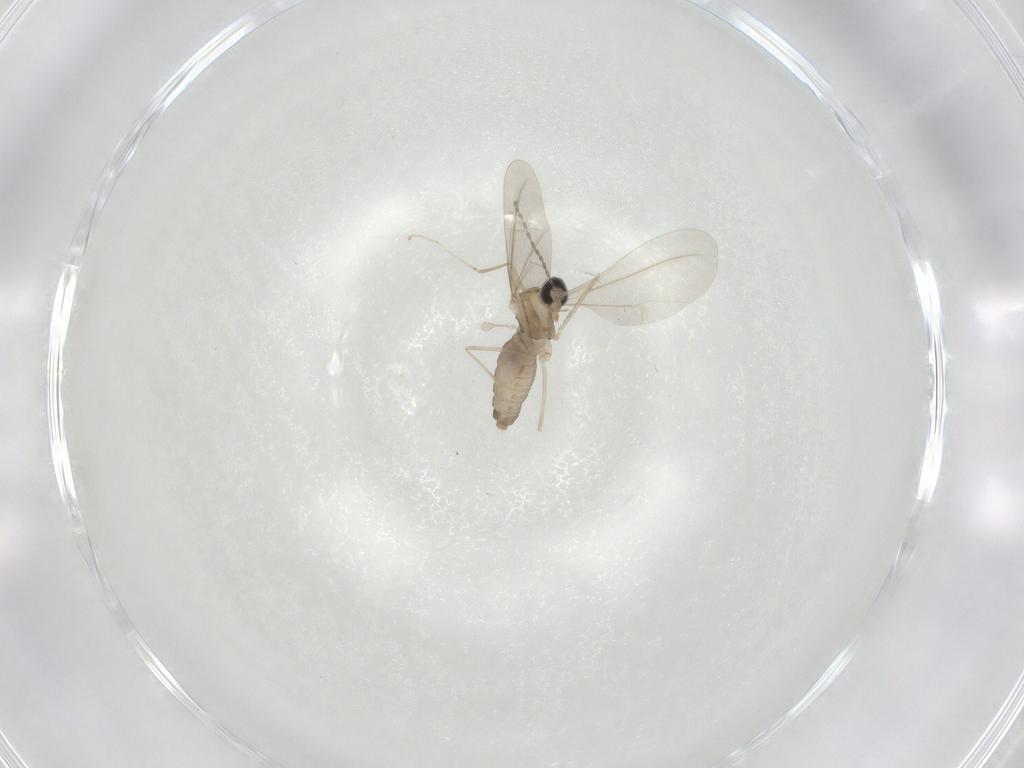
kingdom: Animalia
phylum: Arthropoda
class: Insecta
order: Diptera
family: Cecidomyiidae
